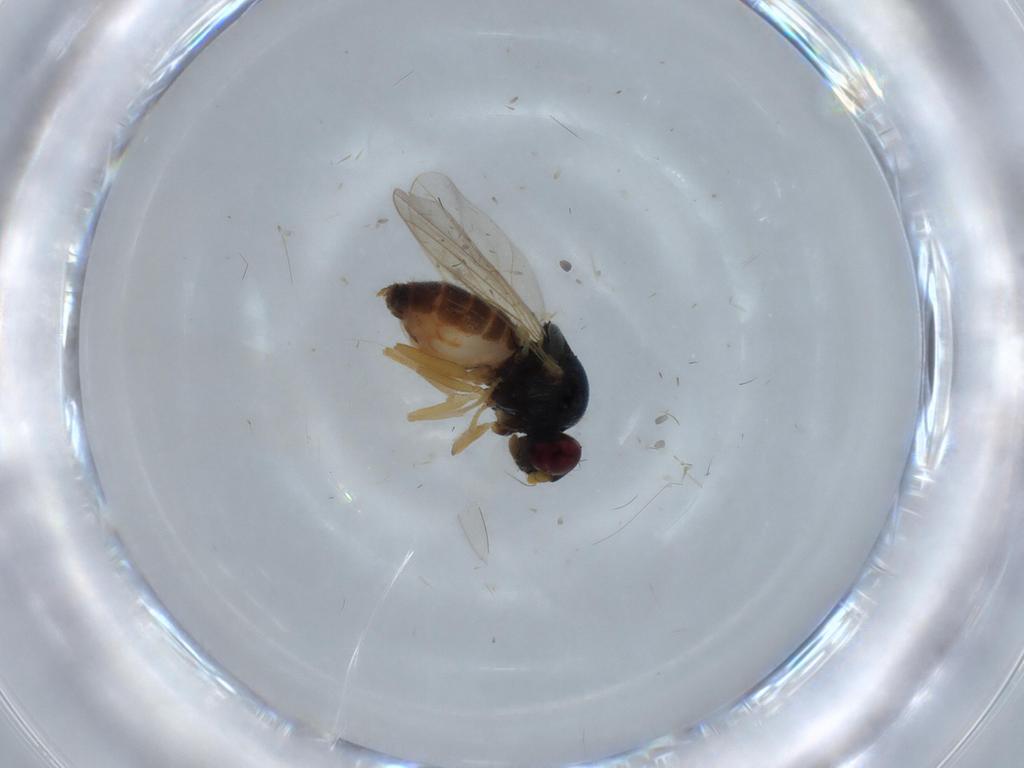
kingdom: Animalia
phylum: Arthropoda
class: Insecta
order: Diptera
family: Chloropidae
